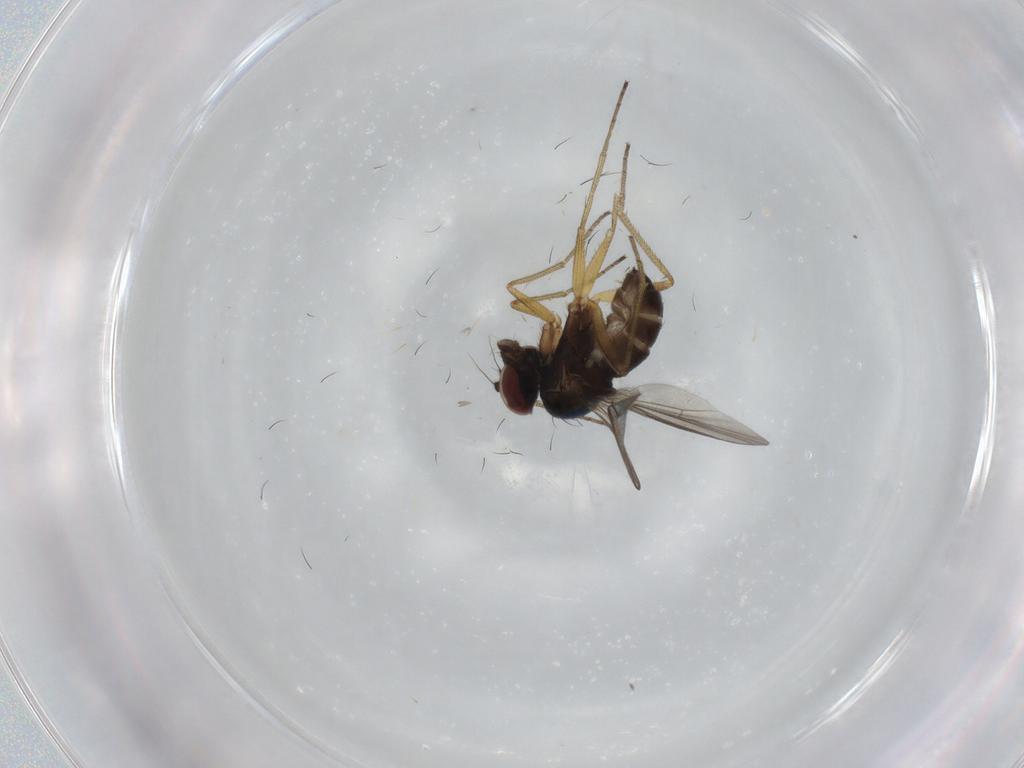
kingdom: Animalia
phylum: Arthropoda
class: Insecta
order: Diptera
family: Dolichopodidae
